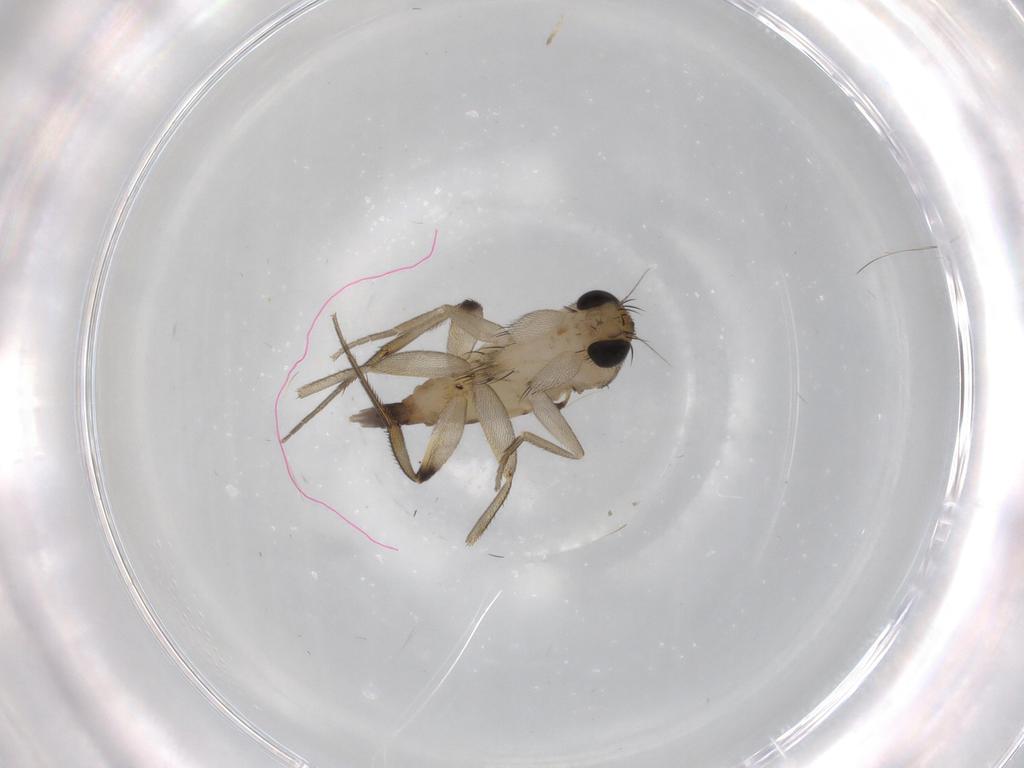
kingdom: Animalia
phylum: Arthropoda
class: Insecta
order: Diptera
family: Phoridae
